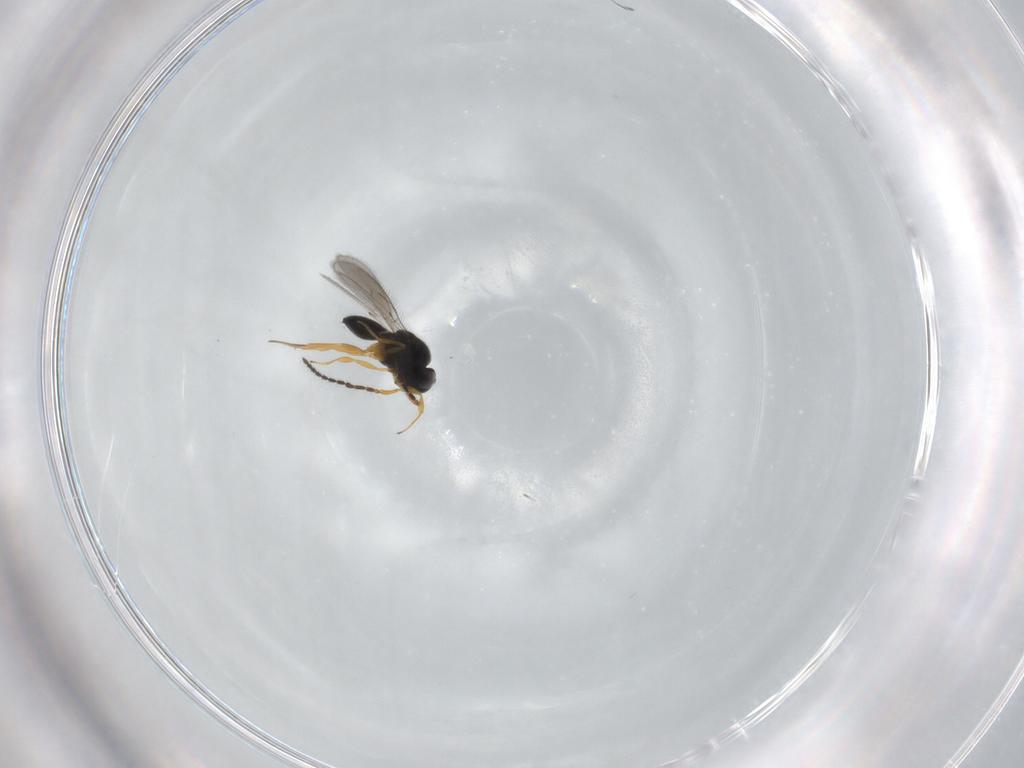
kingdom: Animalia
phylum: Arthropoda
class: Insecta
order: Hymenoptera
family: Scelionidae
